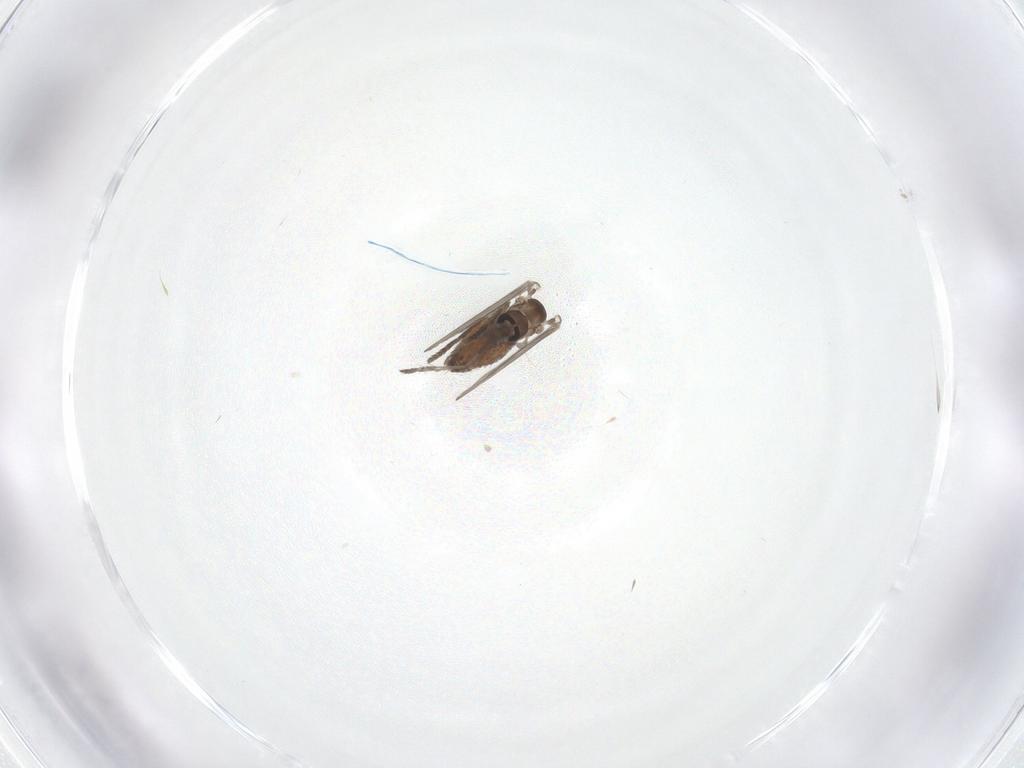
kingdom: Animalia
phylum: Arthropoda
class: Insecta
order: Diptera
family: Psychodidae
